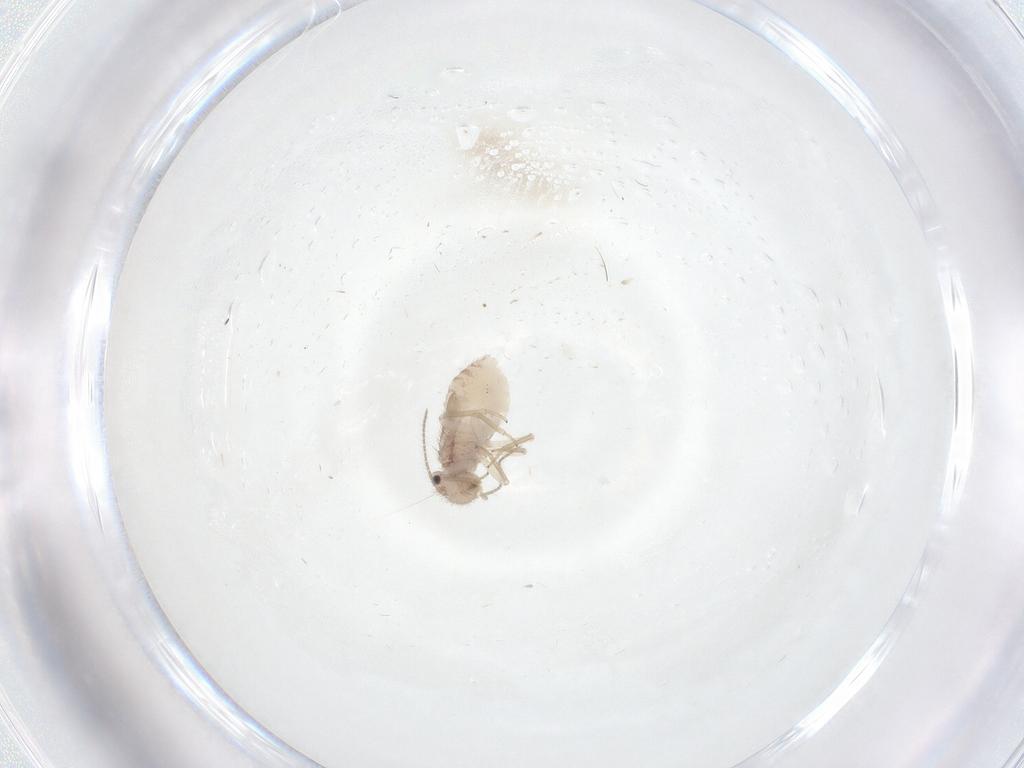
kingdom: Animalia
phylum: Arthropoda
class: Insecta
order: Psocodea
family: Ectopsocidae
